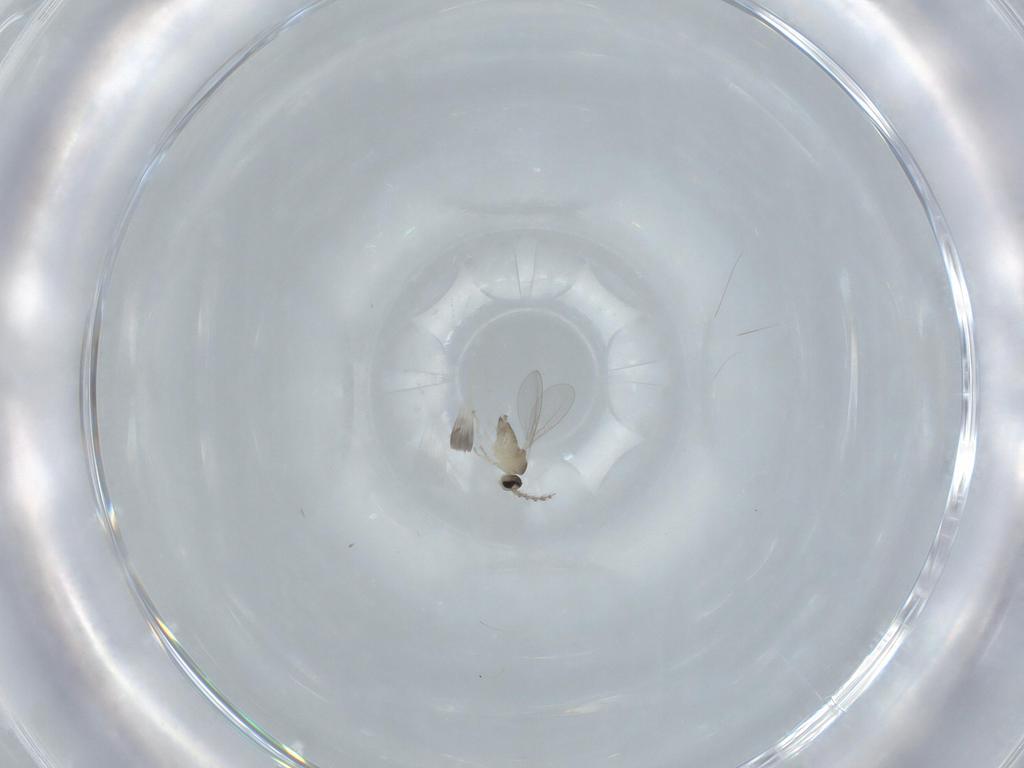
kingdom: Animalia
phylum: Arthropoda
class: Insecta
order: Diptera
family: Cecidomyiidae
